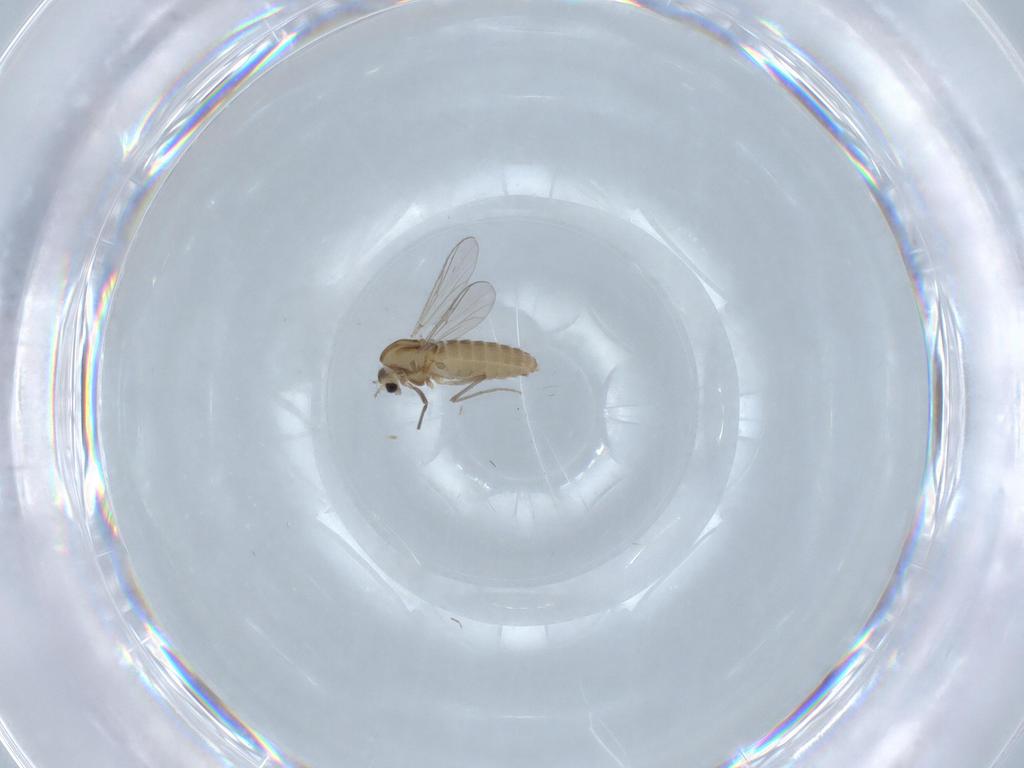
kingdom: Animalia
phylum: Arthropoda
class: Insecta
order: Diptera
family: Chironomidae
